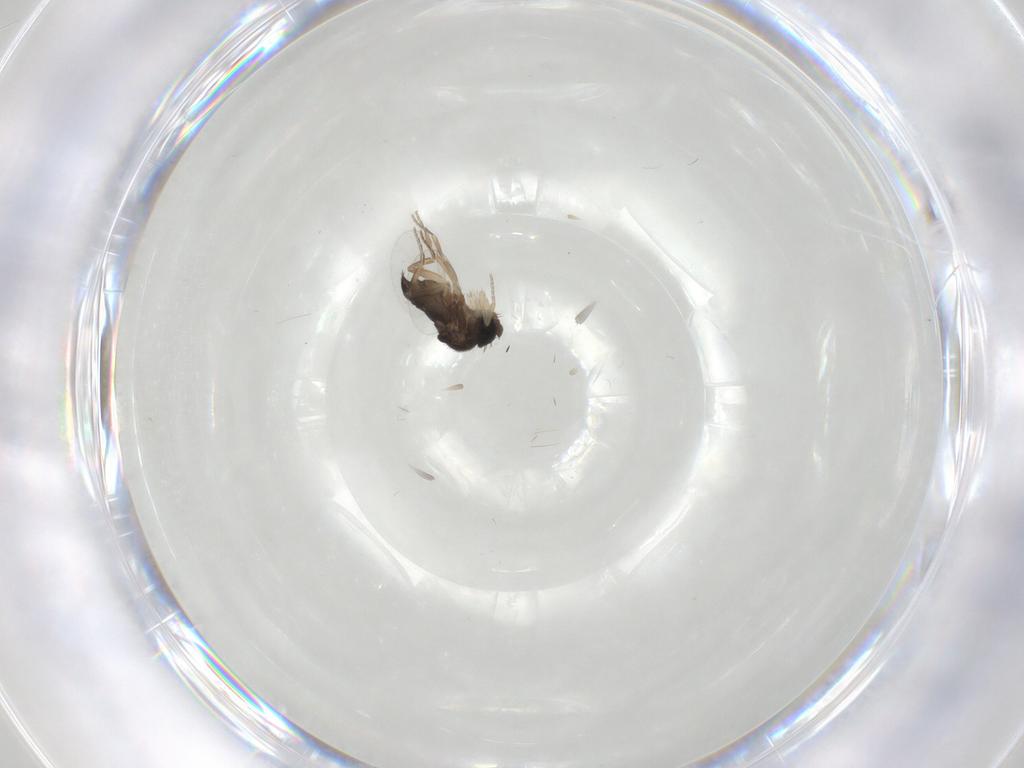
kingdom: Animalia
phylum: Arthropoda
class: Insecta
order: Diptera
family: Phoridae
